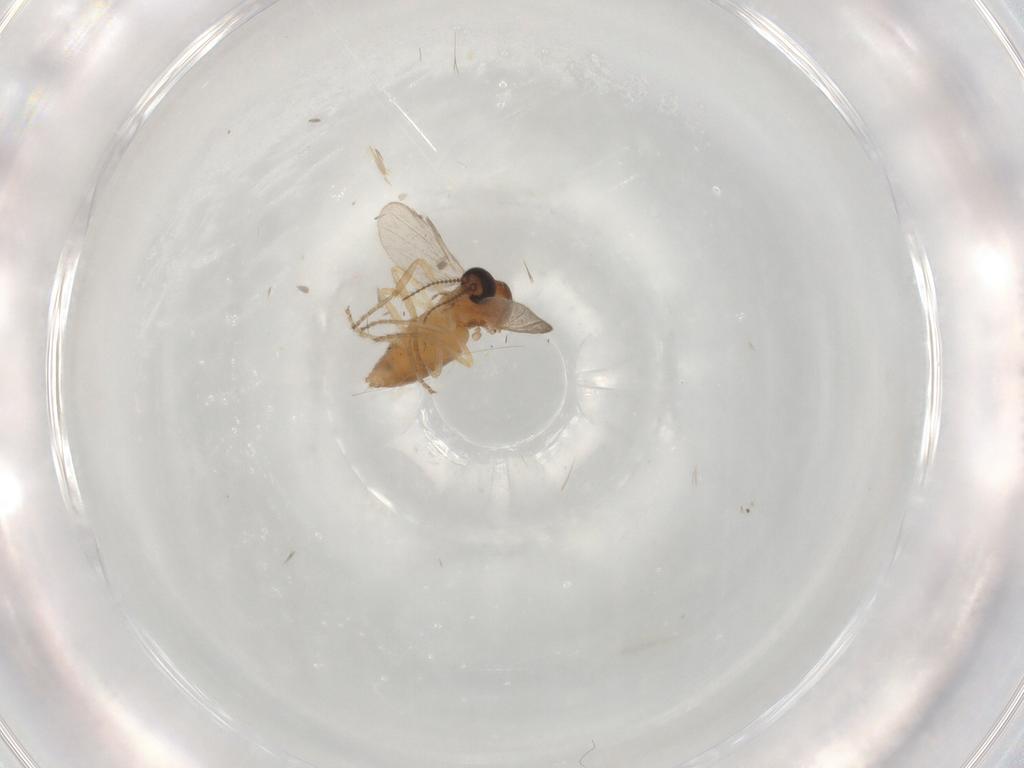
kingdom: Animalia
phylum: Arthropoda
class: Insecta
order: Diptera
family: Ceratopogonidae
